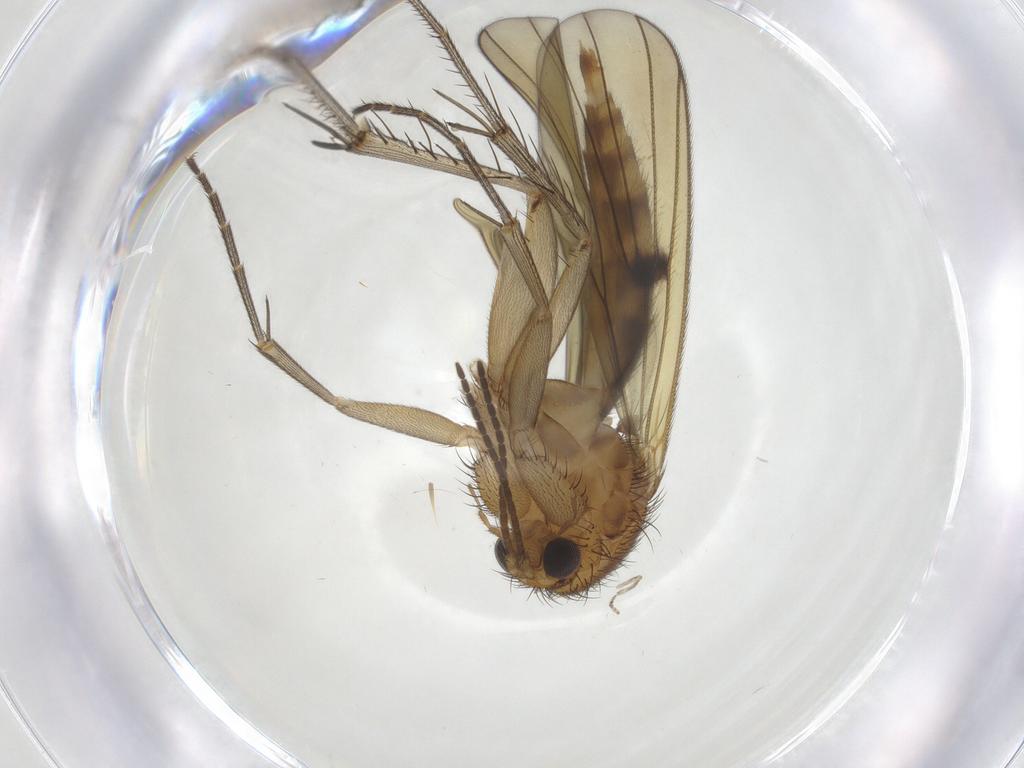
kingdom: Animalia
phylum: Arthropoda
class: Insecta
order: Diptera
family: Mycetophilidae
